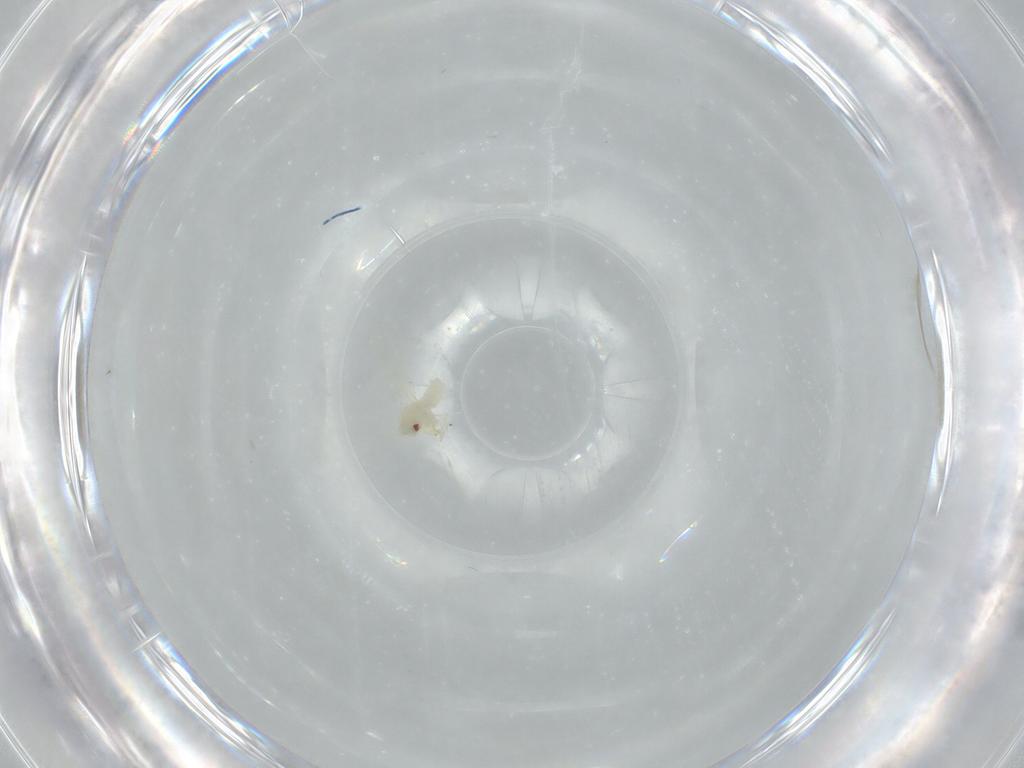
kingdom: Animalia
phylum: Arthropoda
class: Insecta
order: Hemiptera
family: Aleyrodidae
